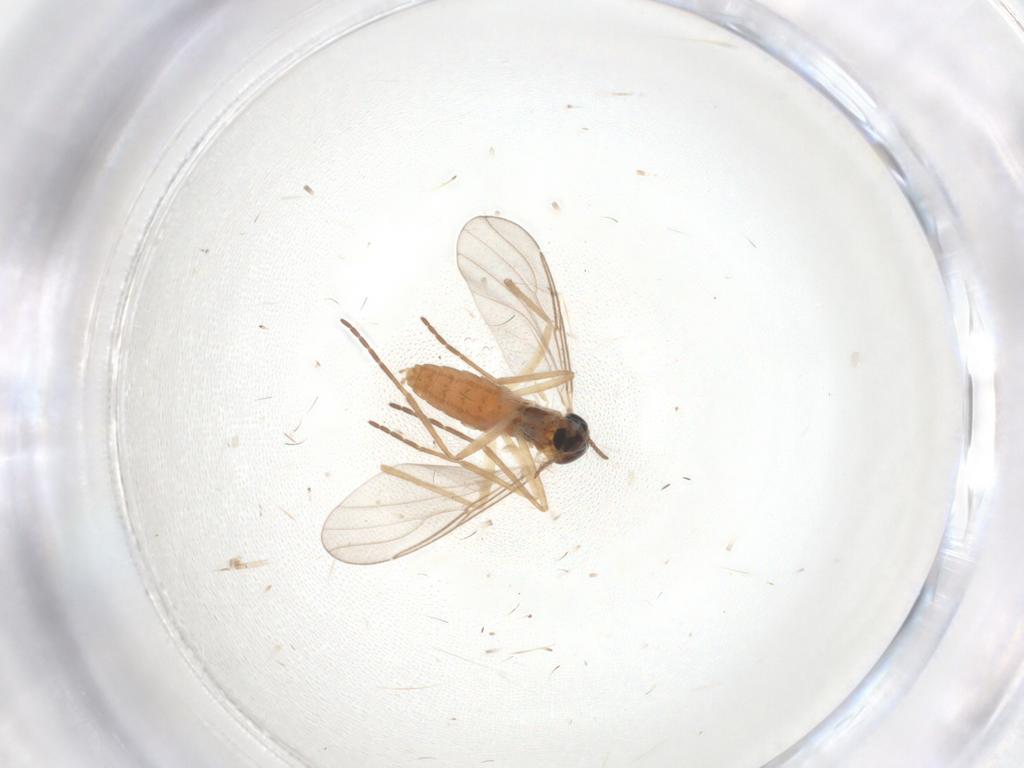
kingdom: Animalia
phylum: Arthropoda
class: Insecta
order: Diptera
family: Cecidomyiidae
